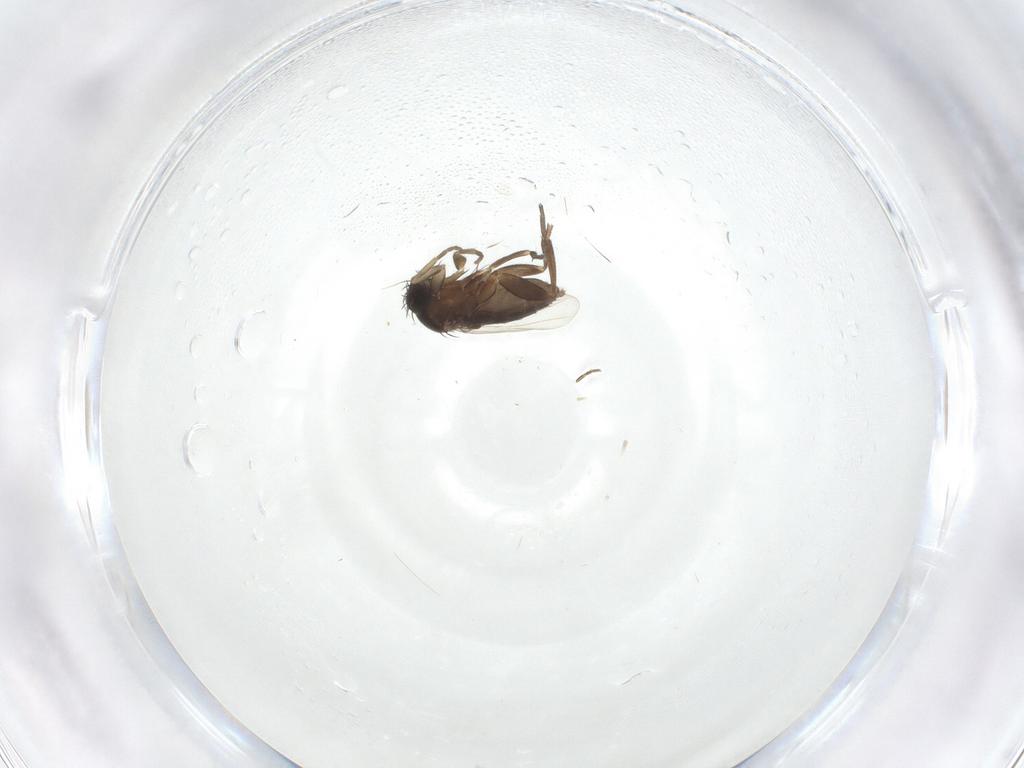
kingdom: Animalia
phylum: Arthropoda
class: Insecta
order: Diptera
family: Phoridae
